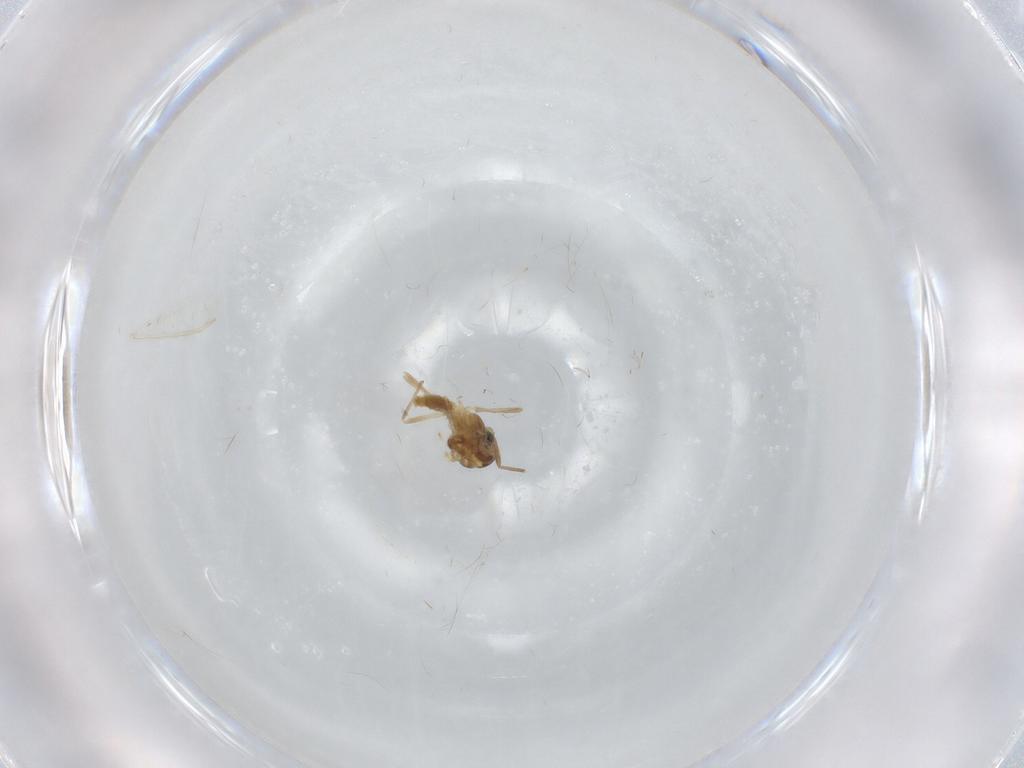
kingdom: Animalia
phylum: Arthropoda
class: Insecta
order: Diptera
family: Chironomidae
